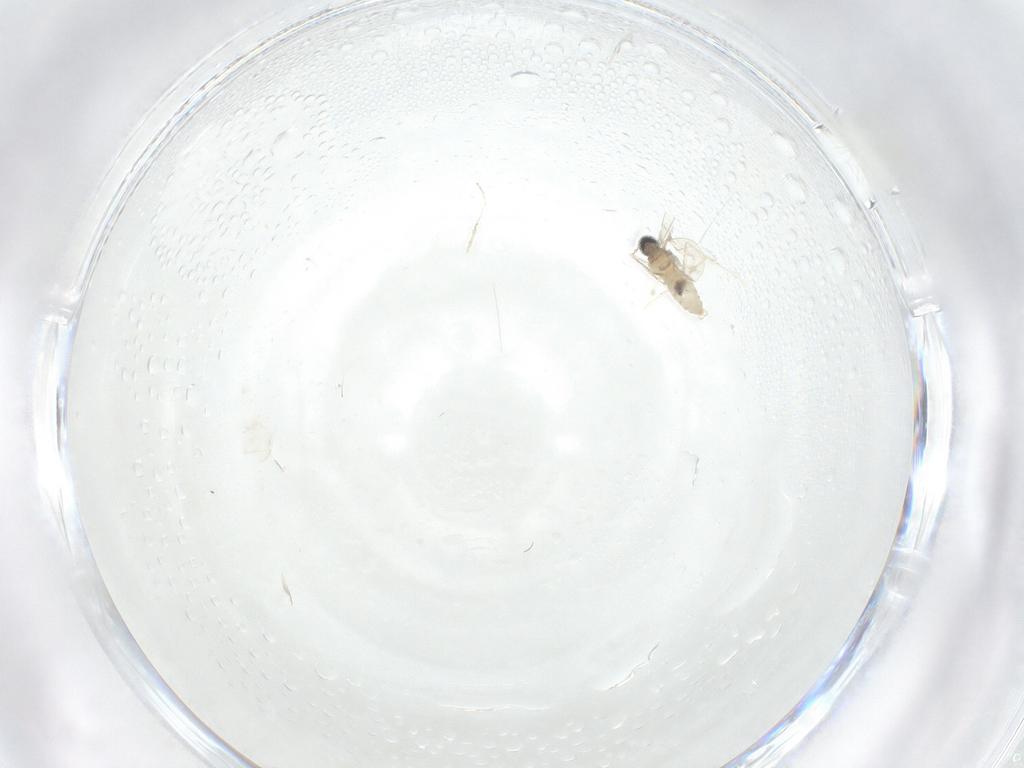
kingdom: Animalia
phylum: Arthropoda
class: Insecta
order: Diptera
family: Cecidomyiidae
